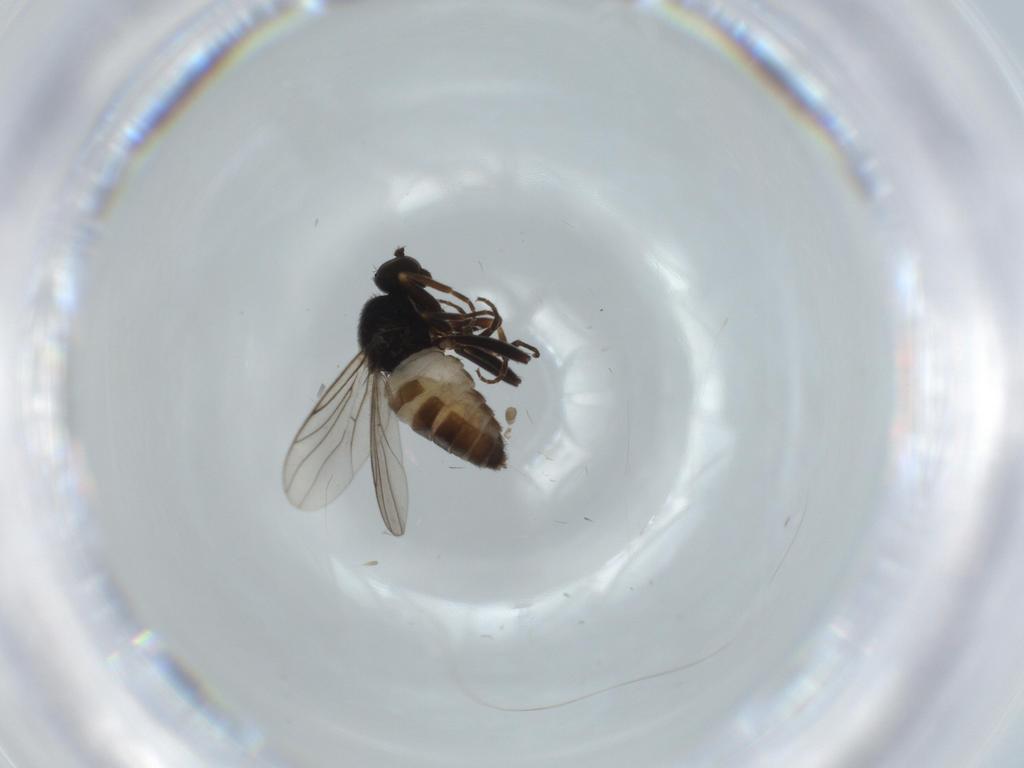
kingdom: Animalia
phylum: Arthropoda
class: Insecta
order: Diptera
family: Hybotidae
